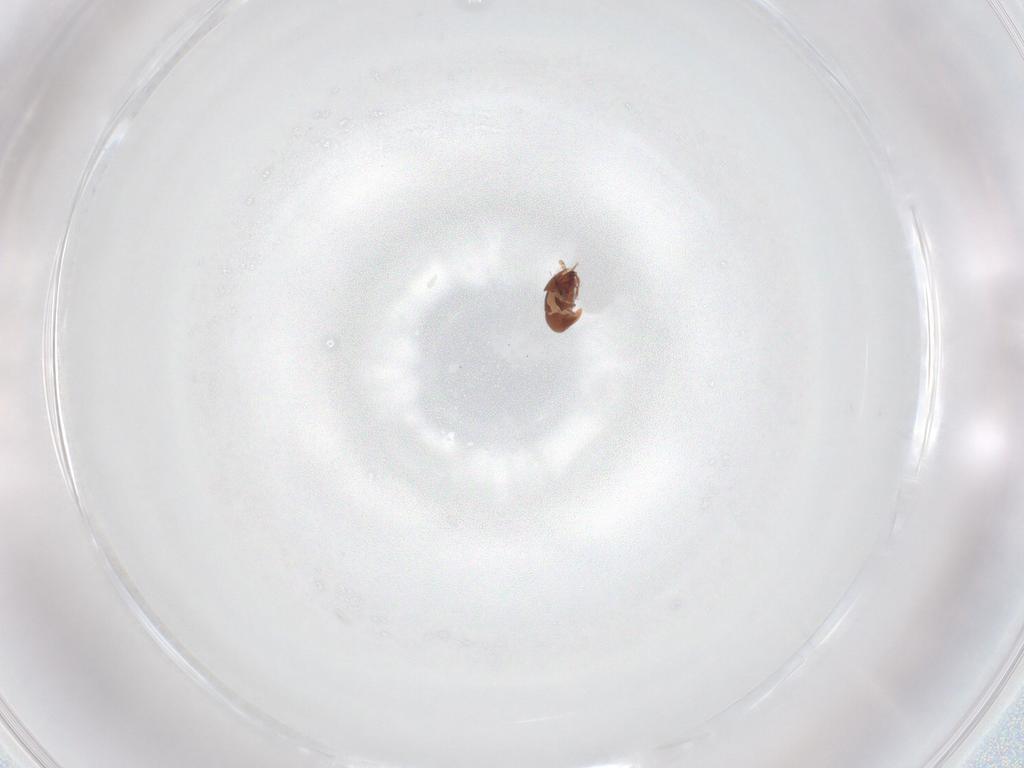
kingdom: Animalia
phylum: Arthropoda
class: Arachnida
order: Sarcoptiformes
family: Achipteriidae
